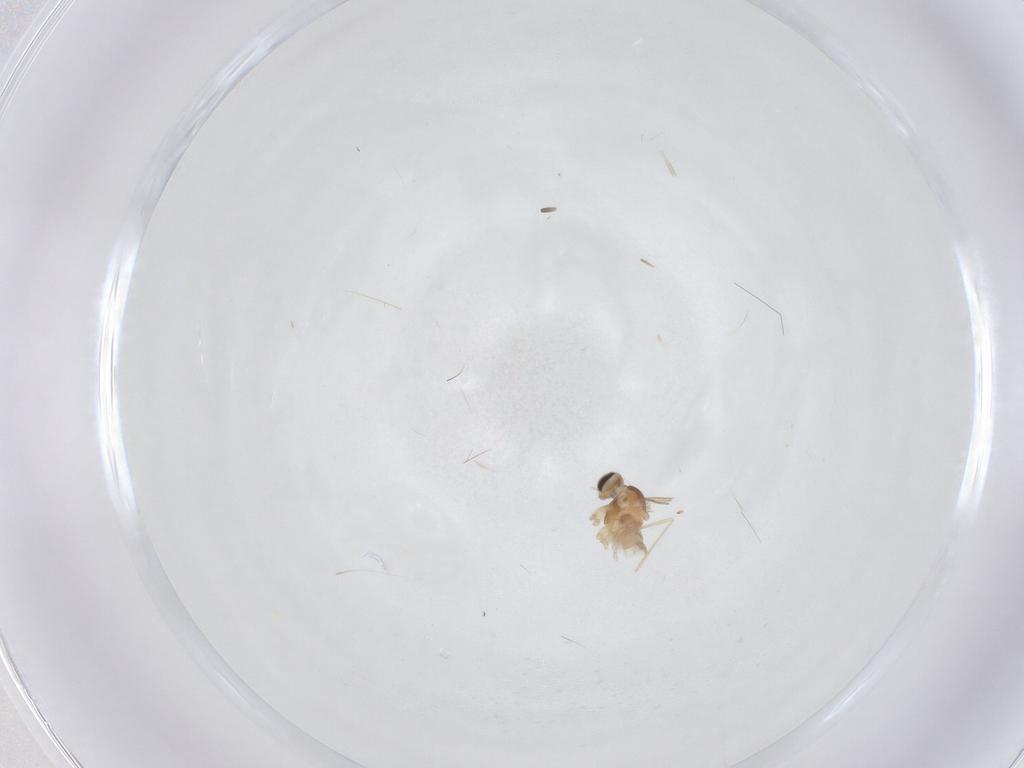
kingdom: Animalia
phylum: Arthropoda
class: Insecta
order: Diptera
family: Cecidomyiidae
